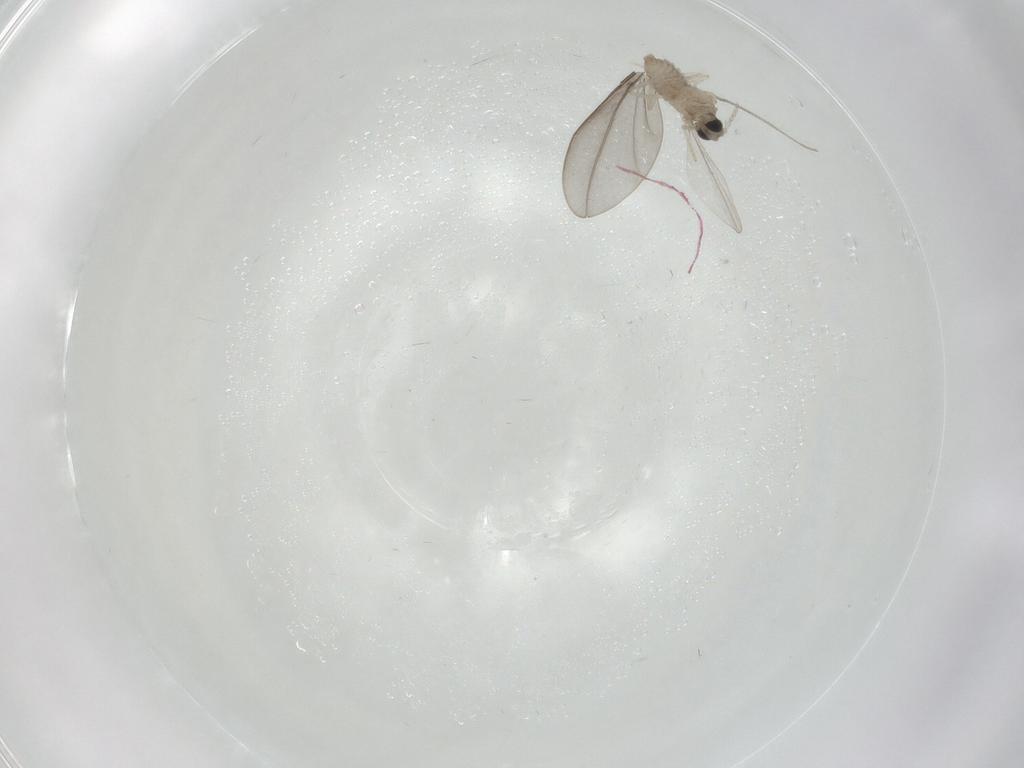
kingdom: Animalia
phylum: Arthropoda
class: Insecta
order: Diptera
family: Cecidomyiidae
